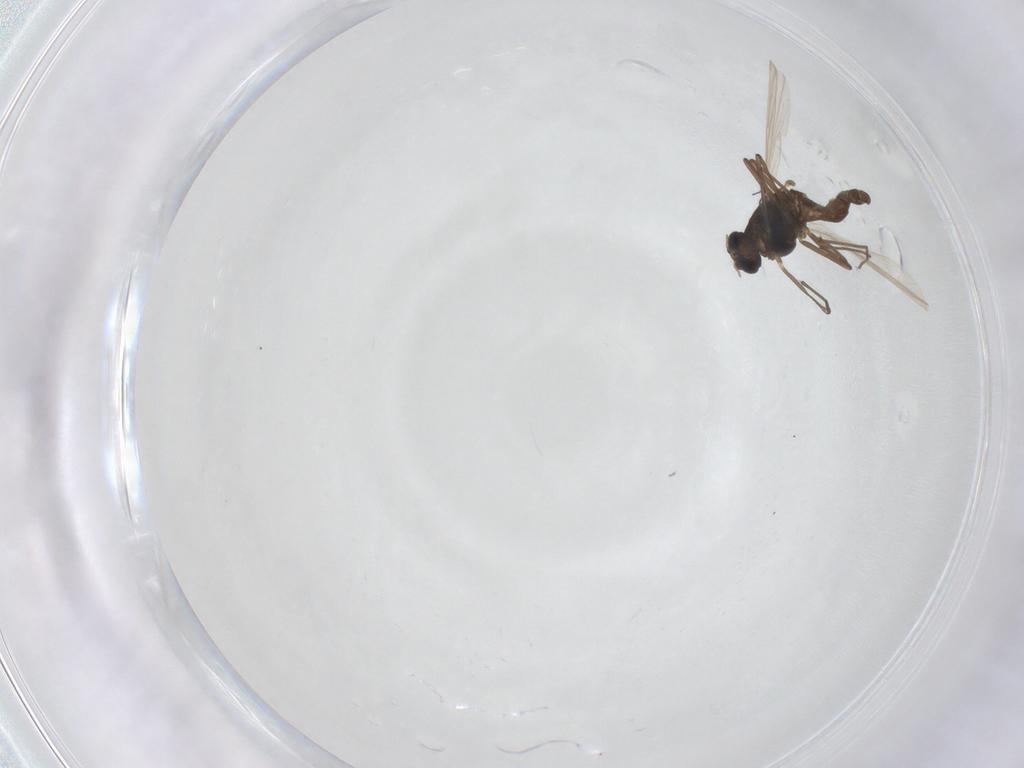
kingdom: Animalia
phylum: Arthropoda
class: Insecta
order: Diptera
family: Chironomidae
